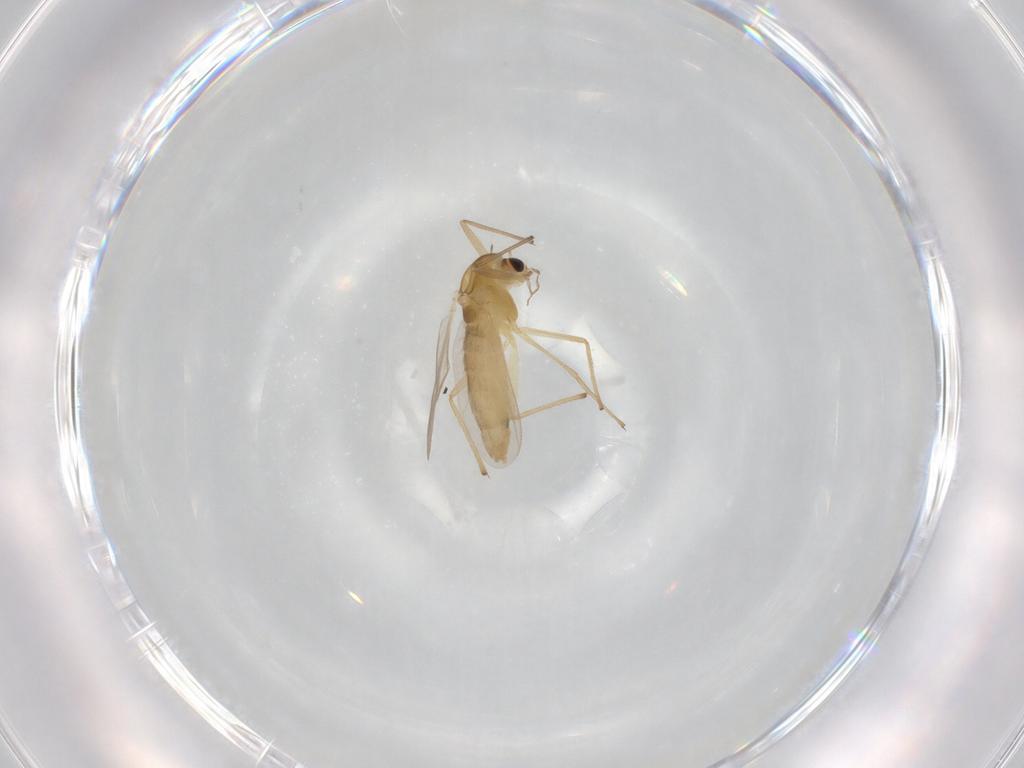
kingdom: Animalia
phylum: Arthropoda
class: Insecta
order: Diptera
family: Chironomidae
